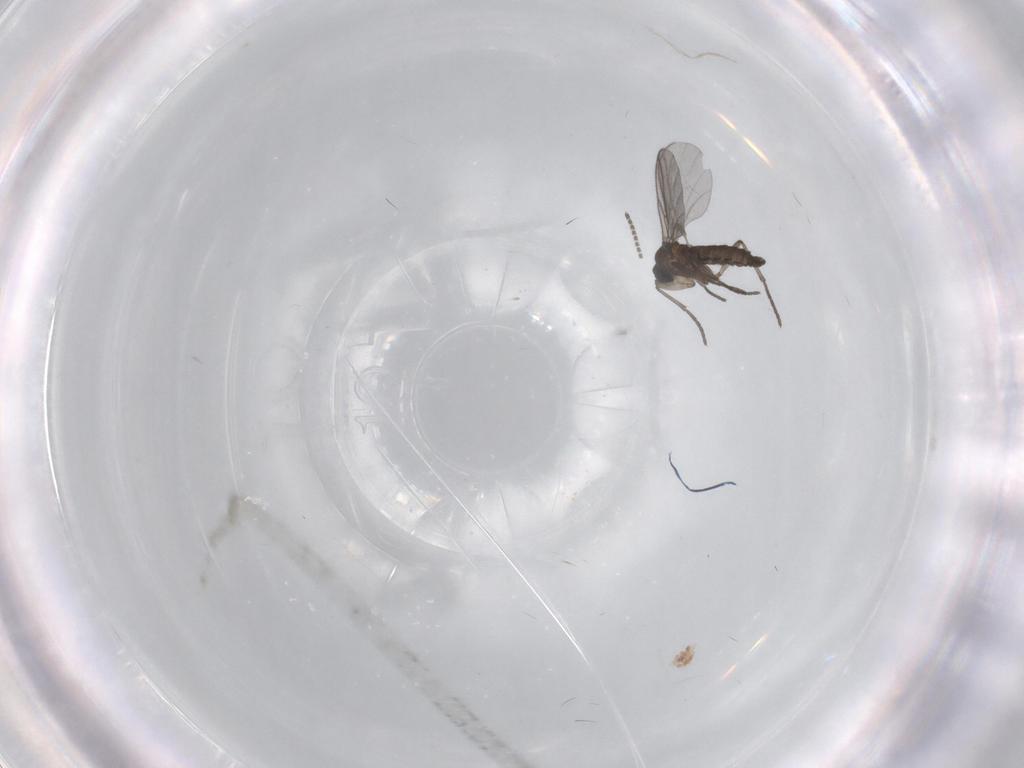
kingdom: Animalia
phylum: Arthropoda
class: Insecta
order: Diptera
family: Cecidomyiidae
